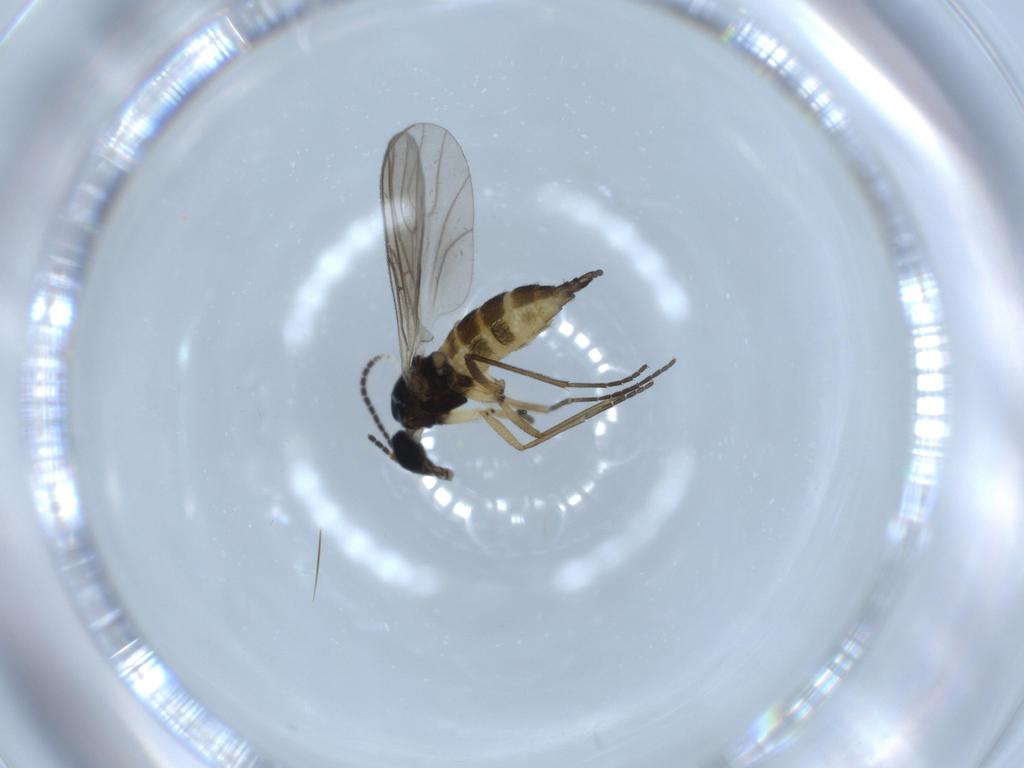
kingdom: Animalia
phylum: Arthropoda
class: Insecta
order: Diptera
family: Sciaridae
